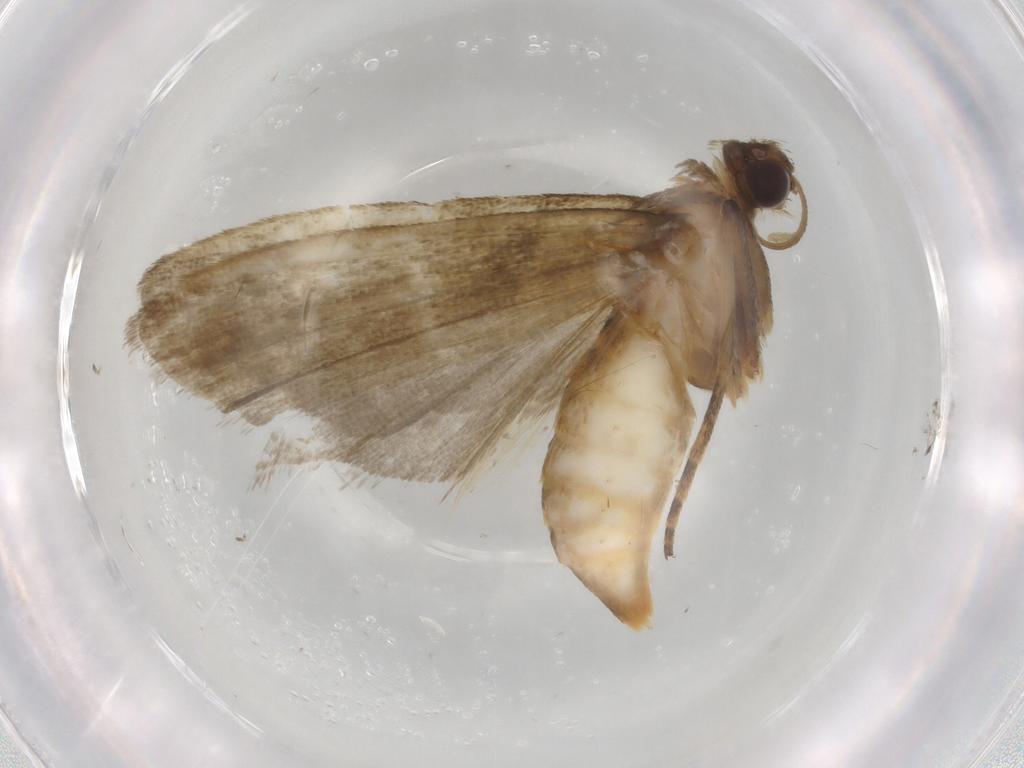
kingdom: Animalia
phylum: Arthropoda
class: Insecta
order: Lepidoptera
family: Noctuidae
